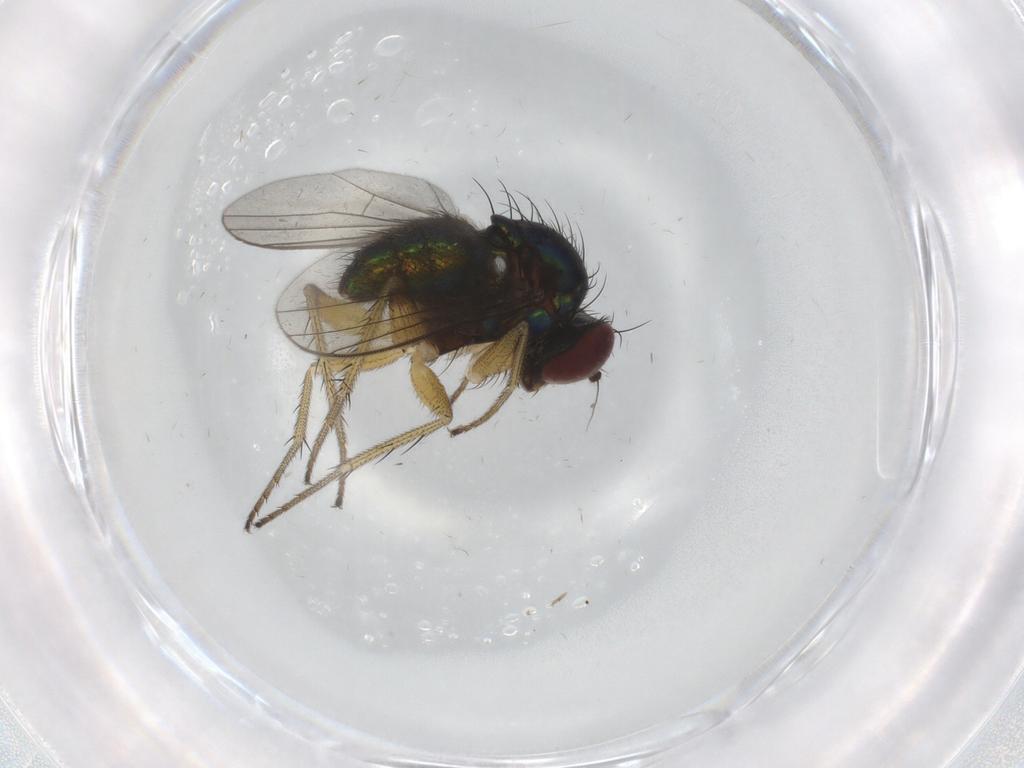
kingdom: Animalia
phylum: Arthropoda
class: Insecta
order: Diptera
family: Dolichopodidae
